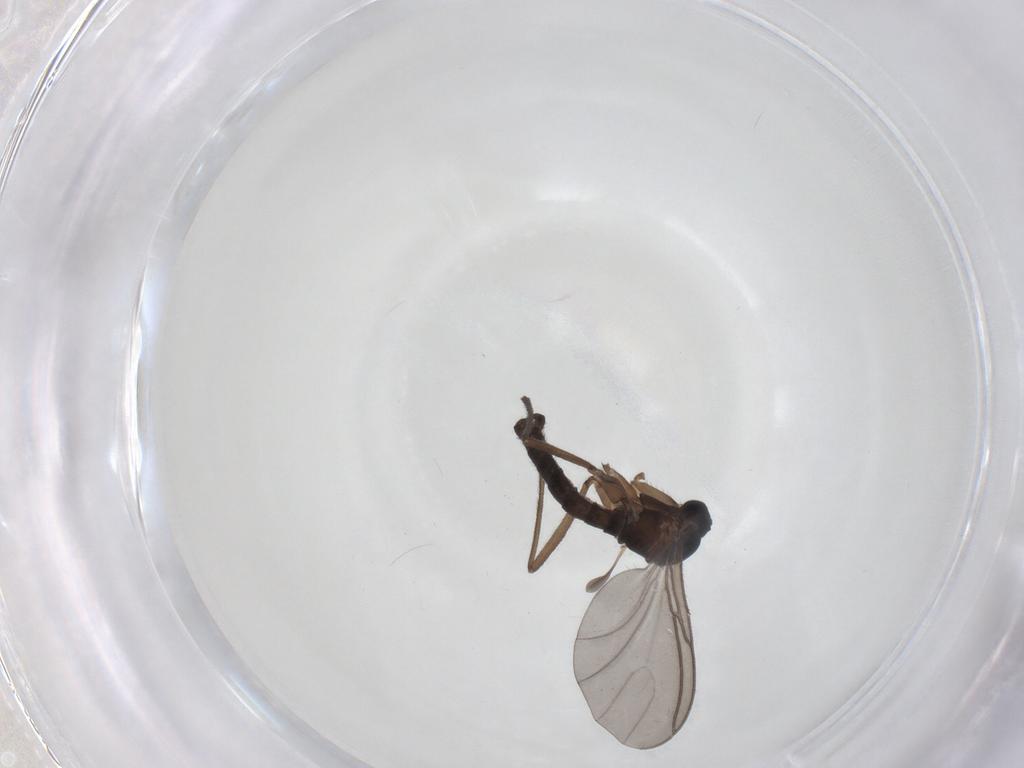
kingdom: Animalia
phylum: Arthropoda
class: Insecta
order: Diptera
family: Sciaridae
